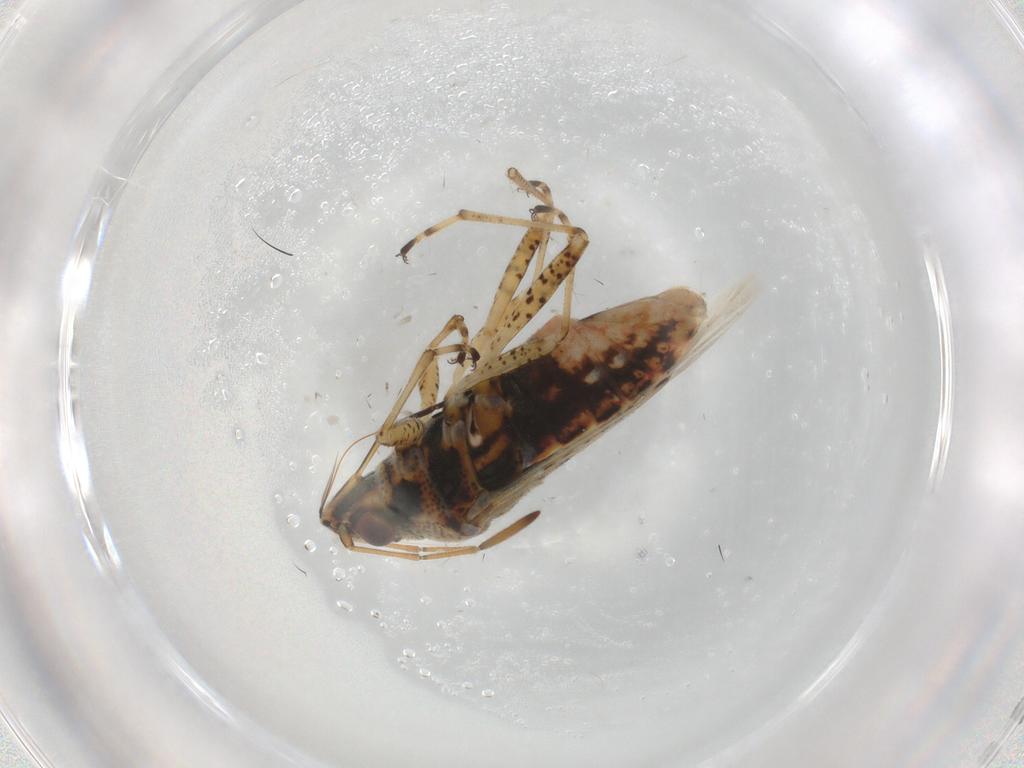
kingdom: Animalia
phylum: Arthropoda
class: Insecta
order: Hemiptera
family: Lygaeidae
